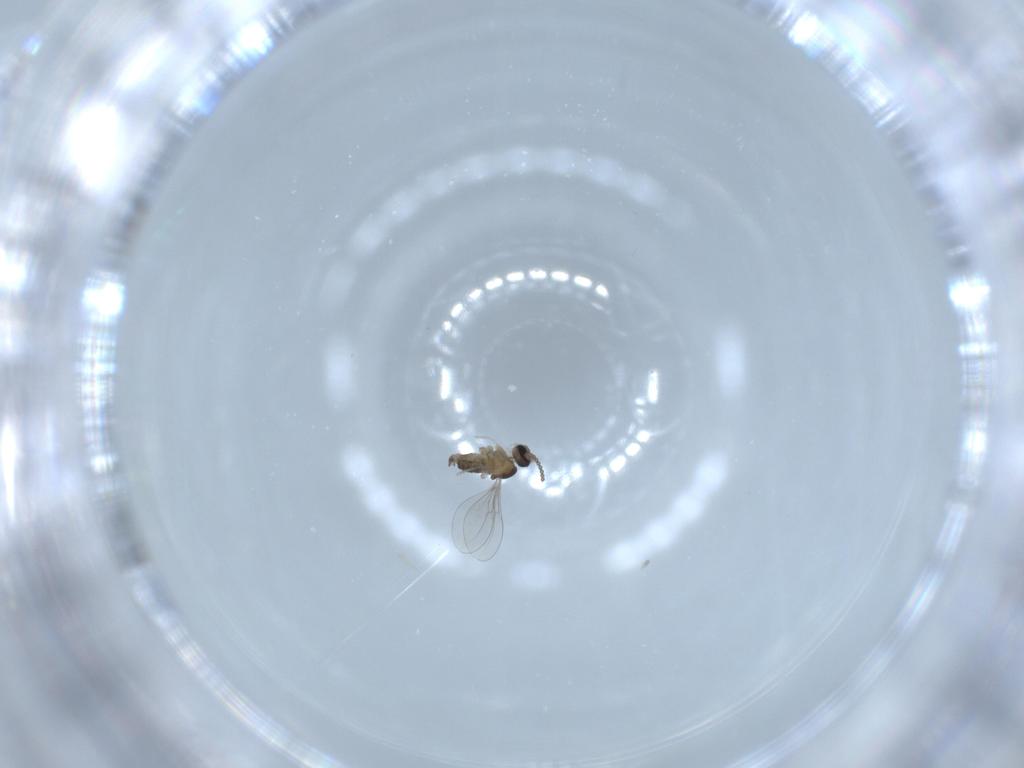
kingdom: Animalia
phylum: Arthropoda
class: Insecta
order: Diptera
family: Cecidomyiidae
